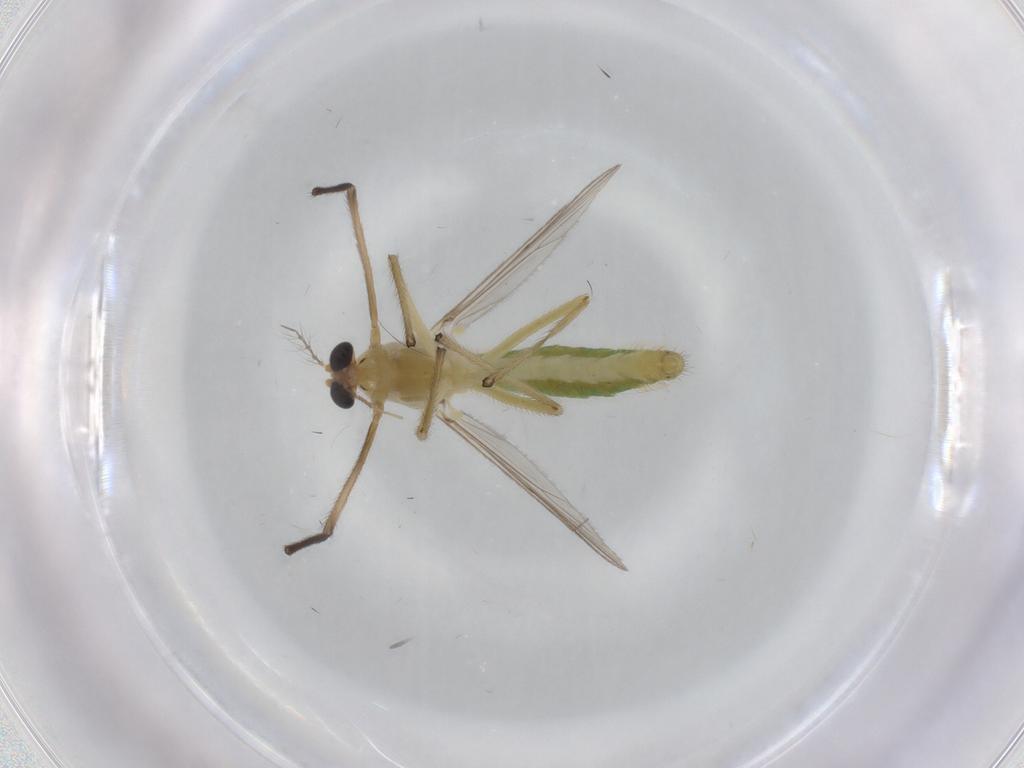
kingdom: Animalia
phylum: Arthropoda
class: Insecta
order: Diptera
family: Chironomidae
